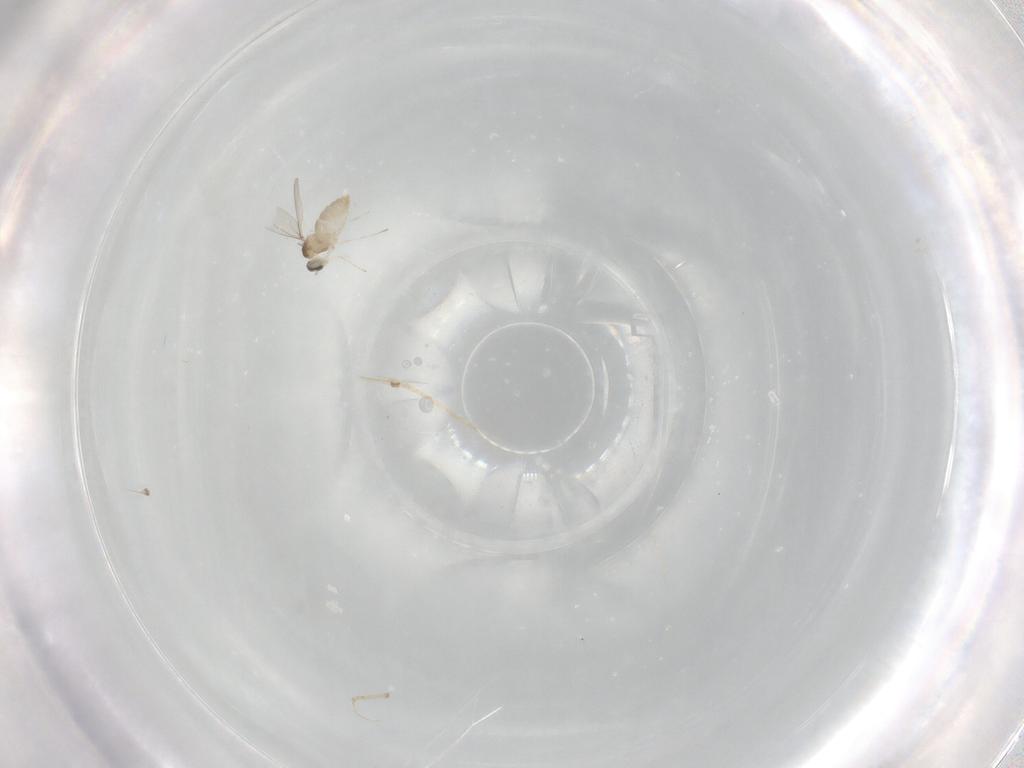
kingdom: Animalia
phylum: Arthropoda
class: Insecta
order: Diptera
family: Cecidomyiidae
